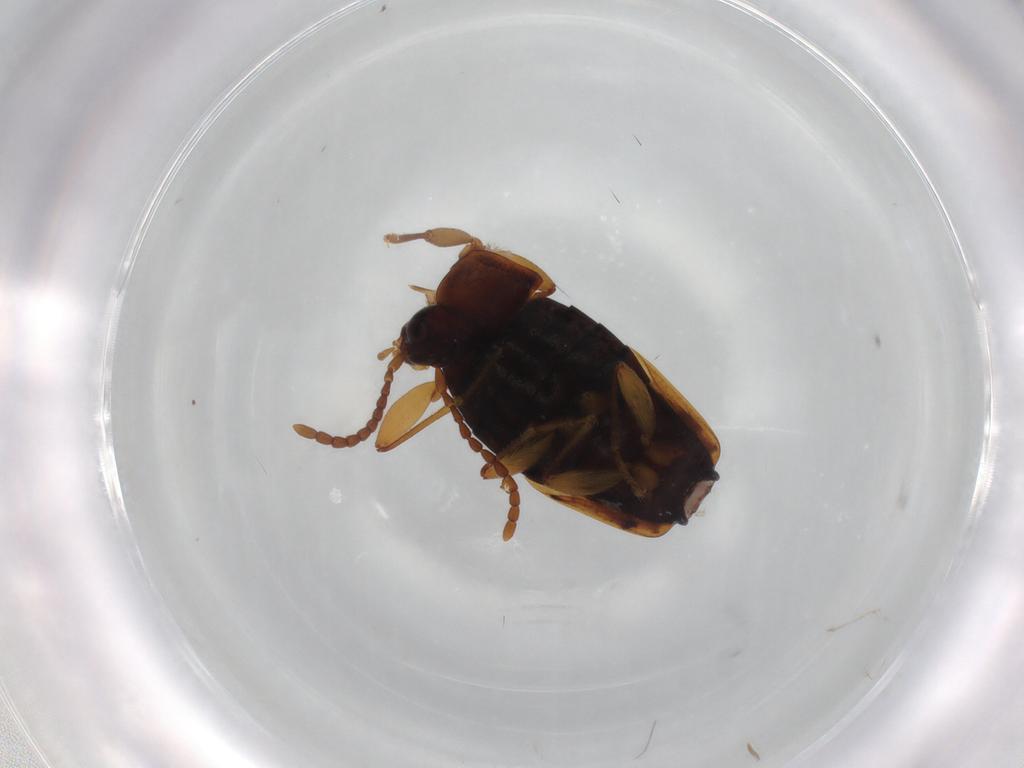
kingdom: Animalia
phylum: Arthropoda
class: Insecta
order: Coleoptera
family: Staphylinidae
